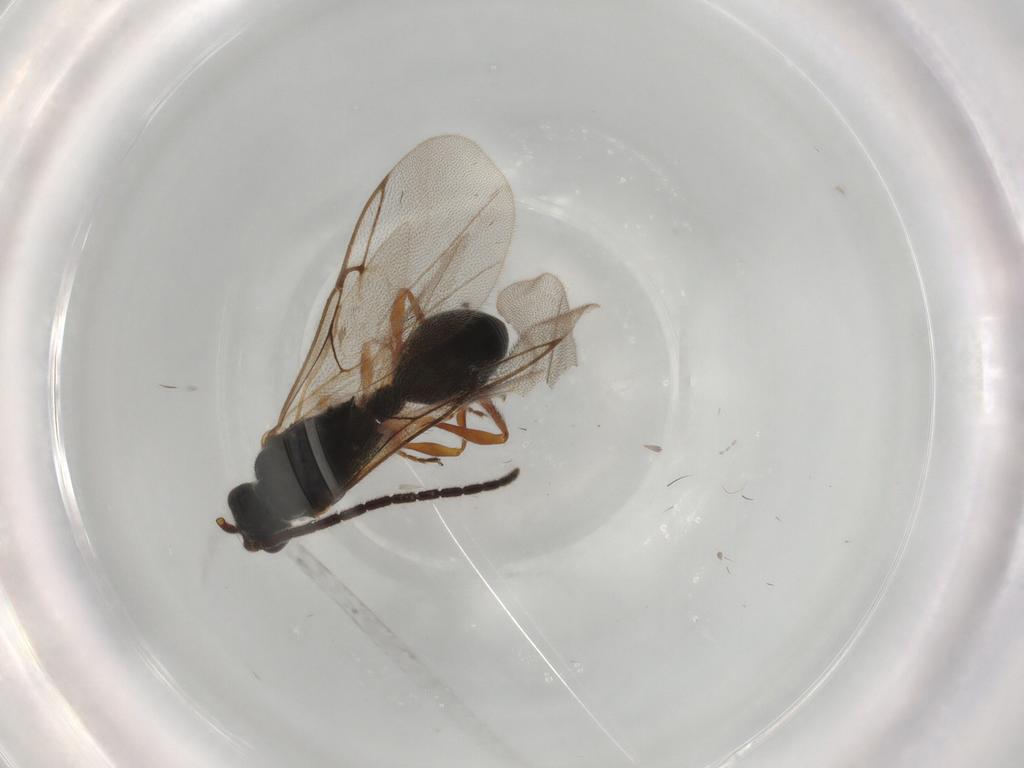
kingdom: Animalia
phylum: Arthropoda
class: Insecta
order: Hymenoptera
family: Diapriidae
